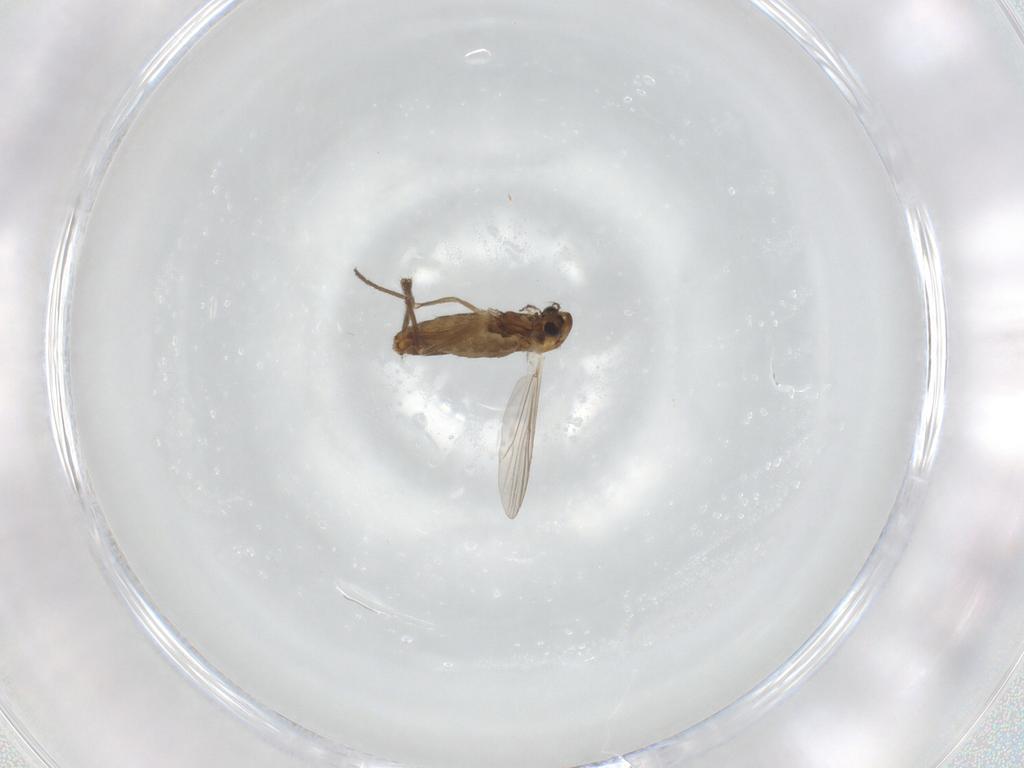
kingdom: Animalia
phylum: Arthropoda
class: Insecta
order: Diptera
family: Chironomidae
